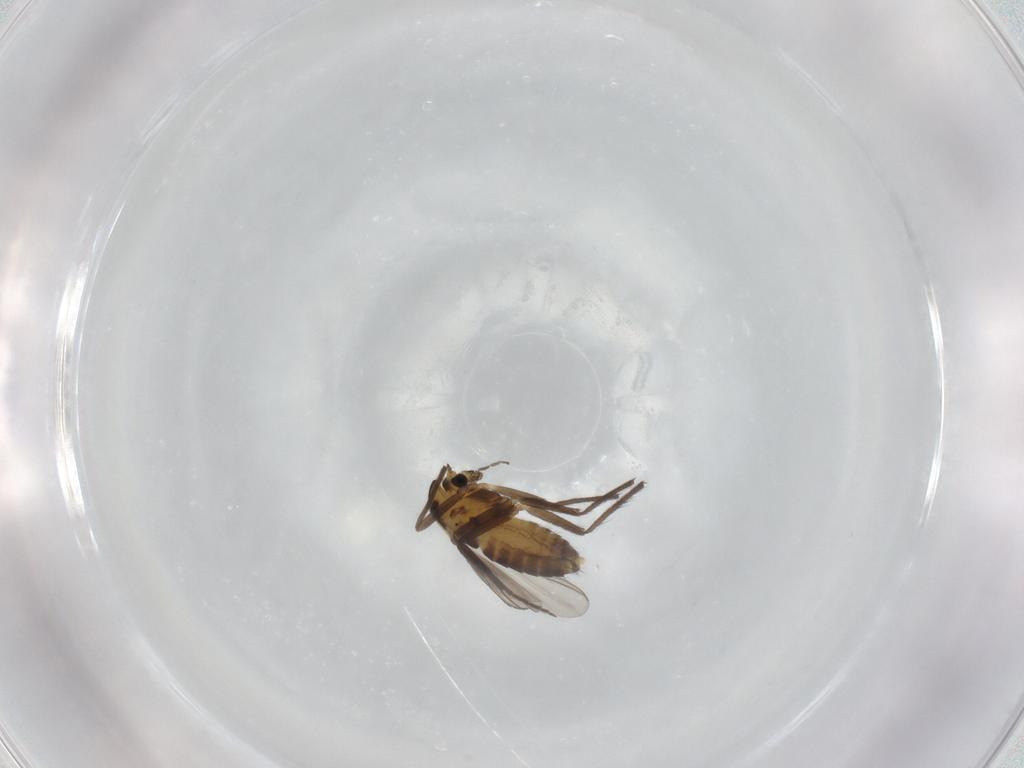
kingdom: Animalia
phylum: Arthropoda
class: Insecta
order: Diptera
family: Chironomidae
